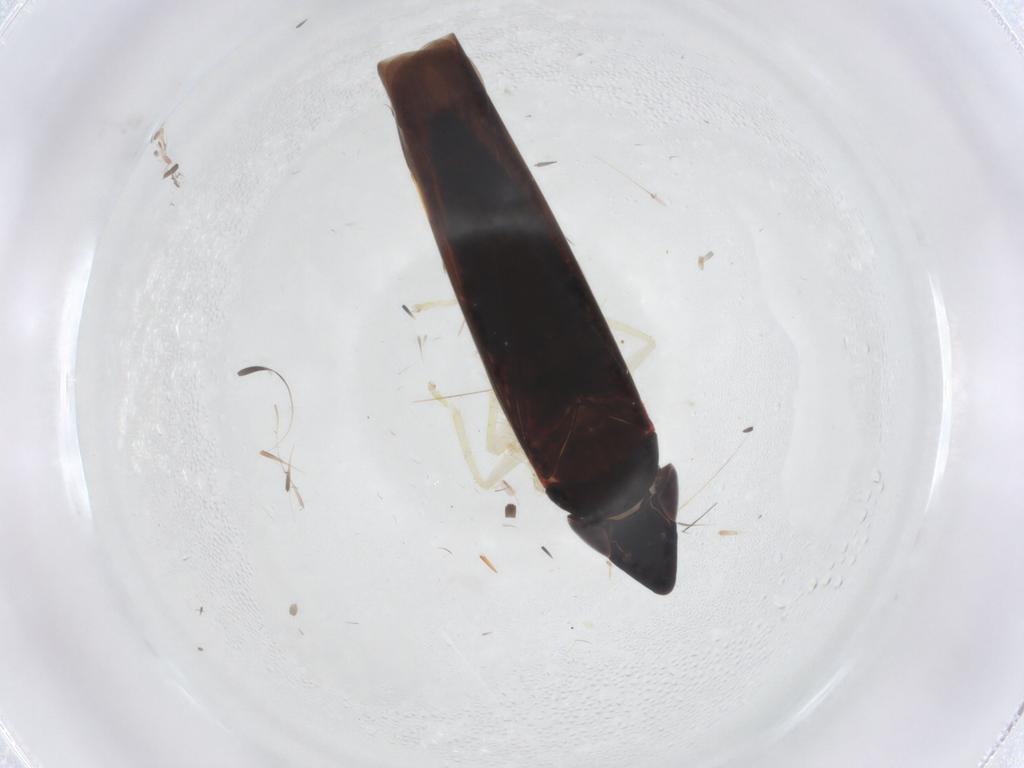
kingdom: Animalia
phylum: Arthropoda
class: Insecta
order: Hemiptera
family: Cicadellidae
